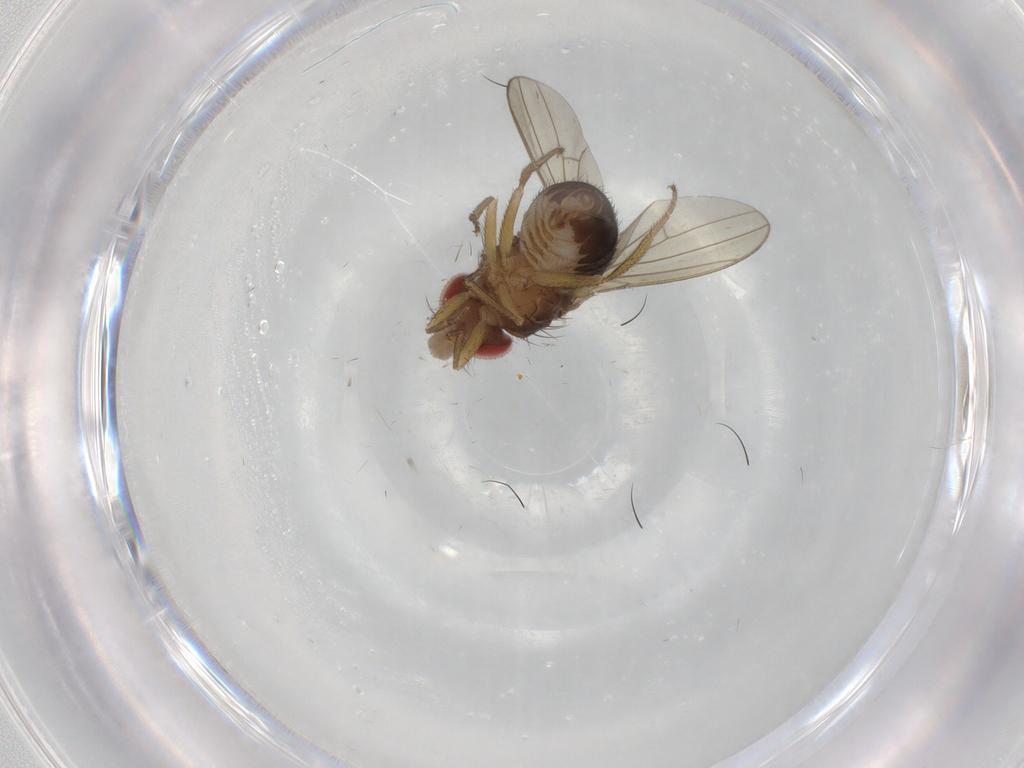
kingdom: Animalia
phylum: Arthropoda
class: Insecta
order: Diptera
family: Drosophilidae
